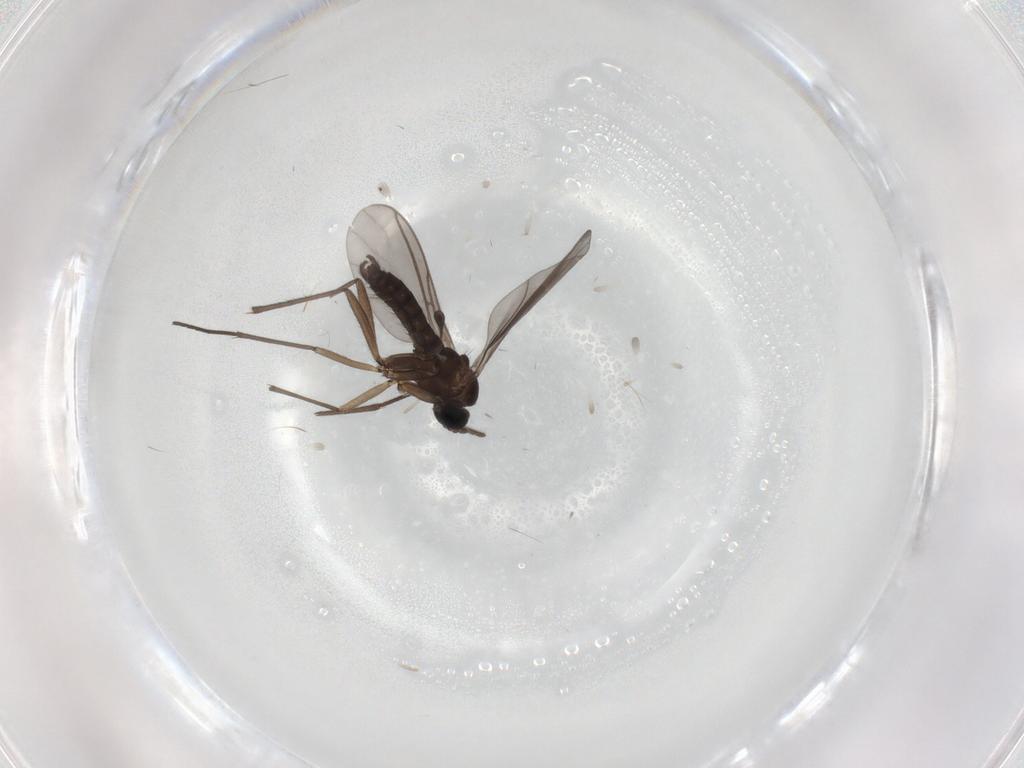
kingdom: Animalia
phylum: Arthropoda
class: Insecta
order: Diptera
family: Sciaridae
